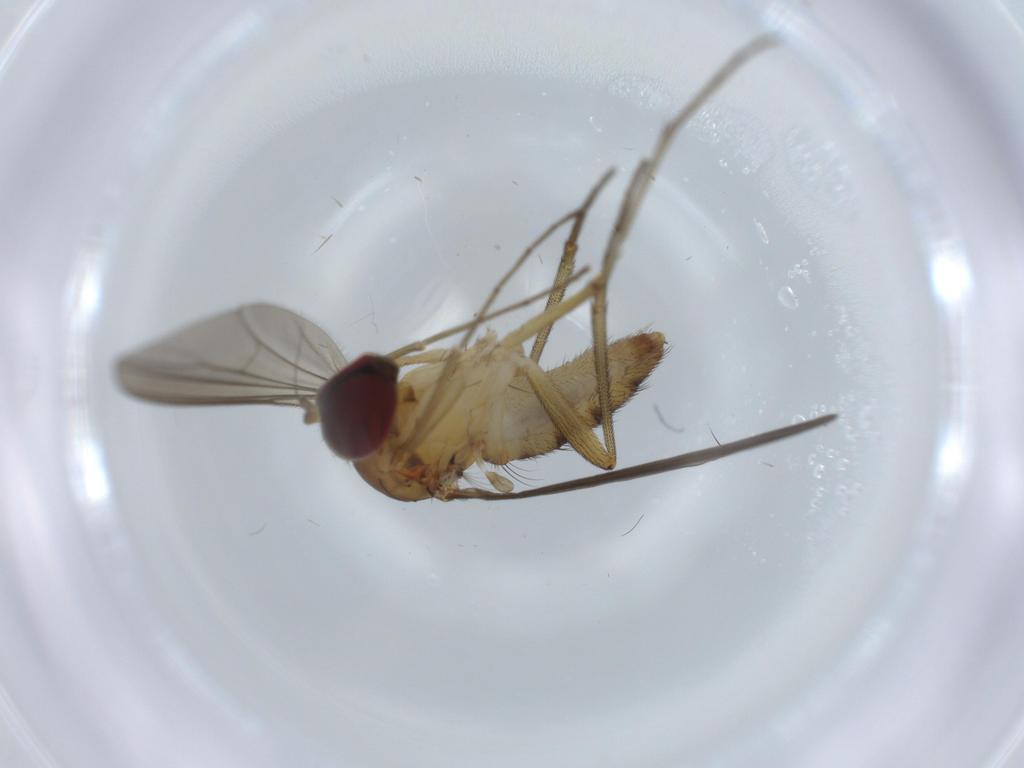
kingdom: Animalia
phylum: Arthropoda
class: Insecta
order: Diptera
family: Dolichopodidae
